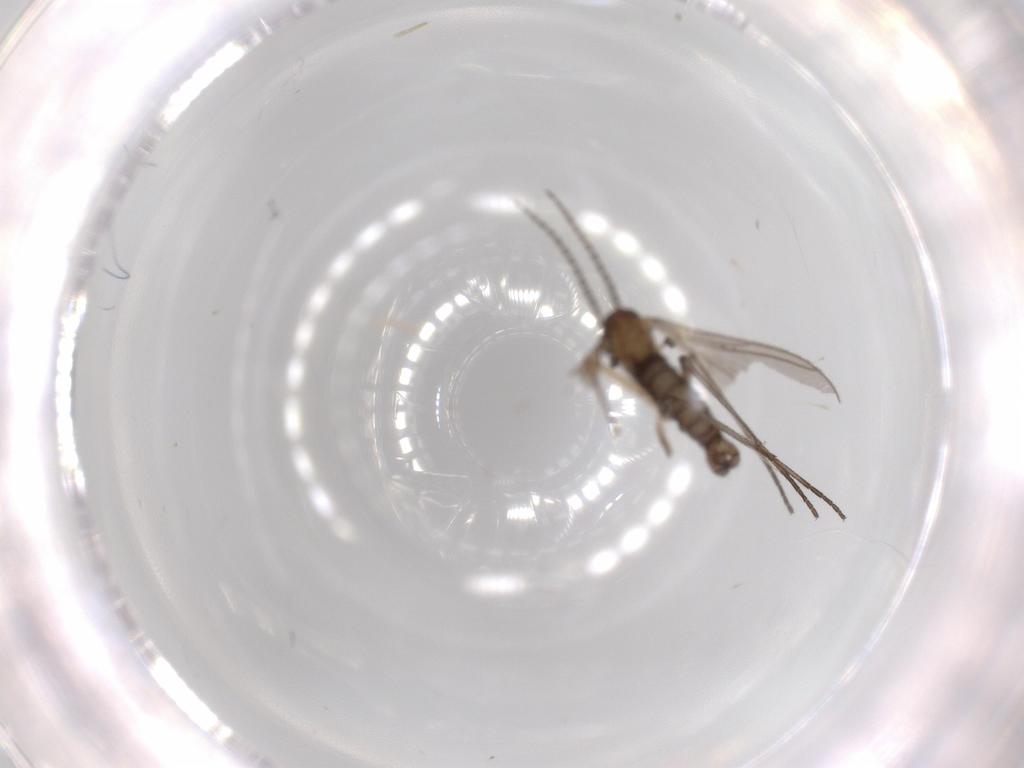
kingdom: Animalia
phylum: Arthropoda
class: Insecta
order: Diptera
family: Sciaridae
